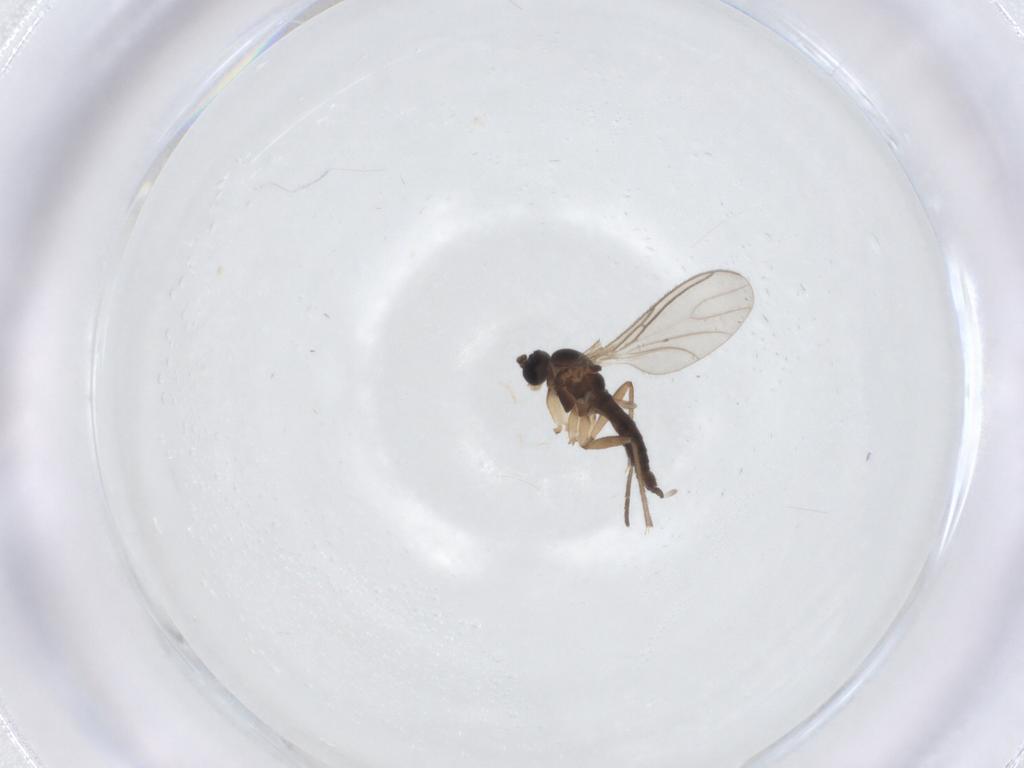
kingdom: Animalia
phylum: Arthropoda
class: Insecta
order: Diptera
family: Sciaridae
